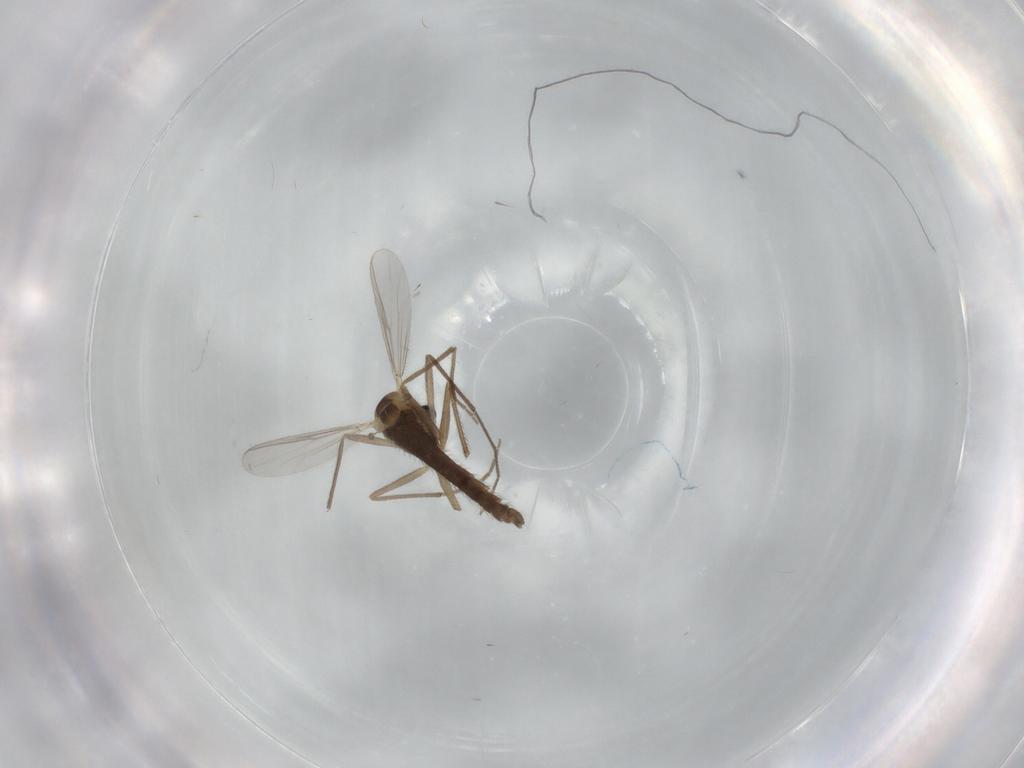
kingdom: Animalia
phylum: Arthropoda
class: Insecta
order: Diptera
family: Chironomidae
